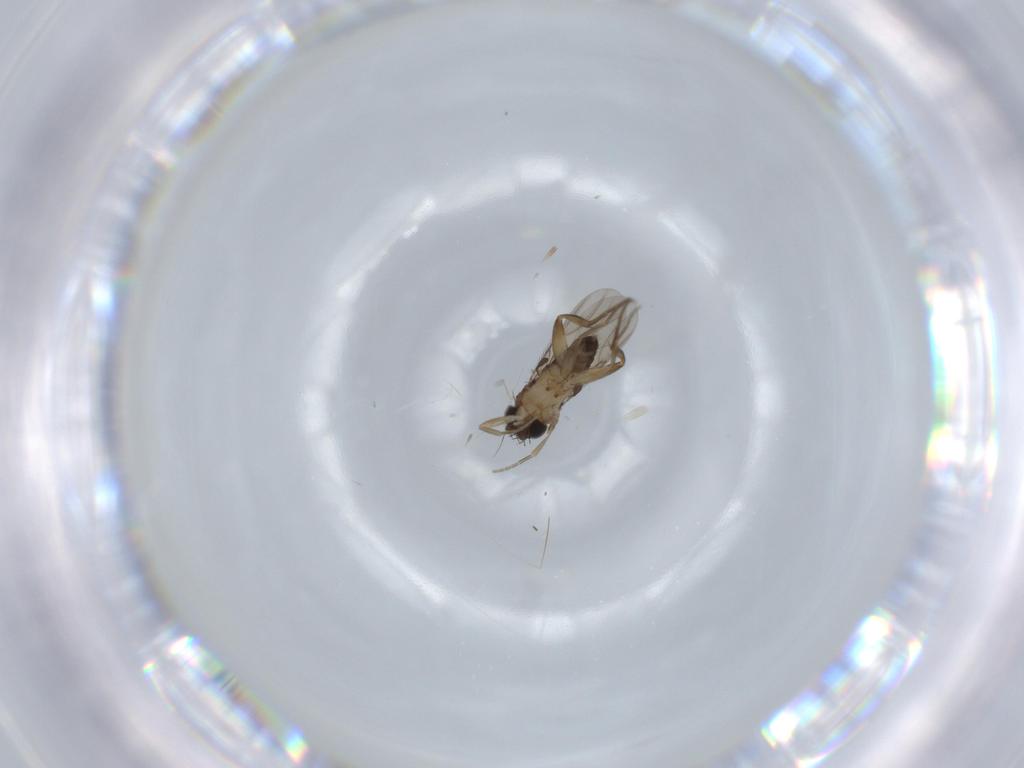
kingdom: Animalia
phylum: Arthropoda
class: Insecta
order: Diptera
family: Phoridae
